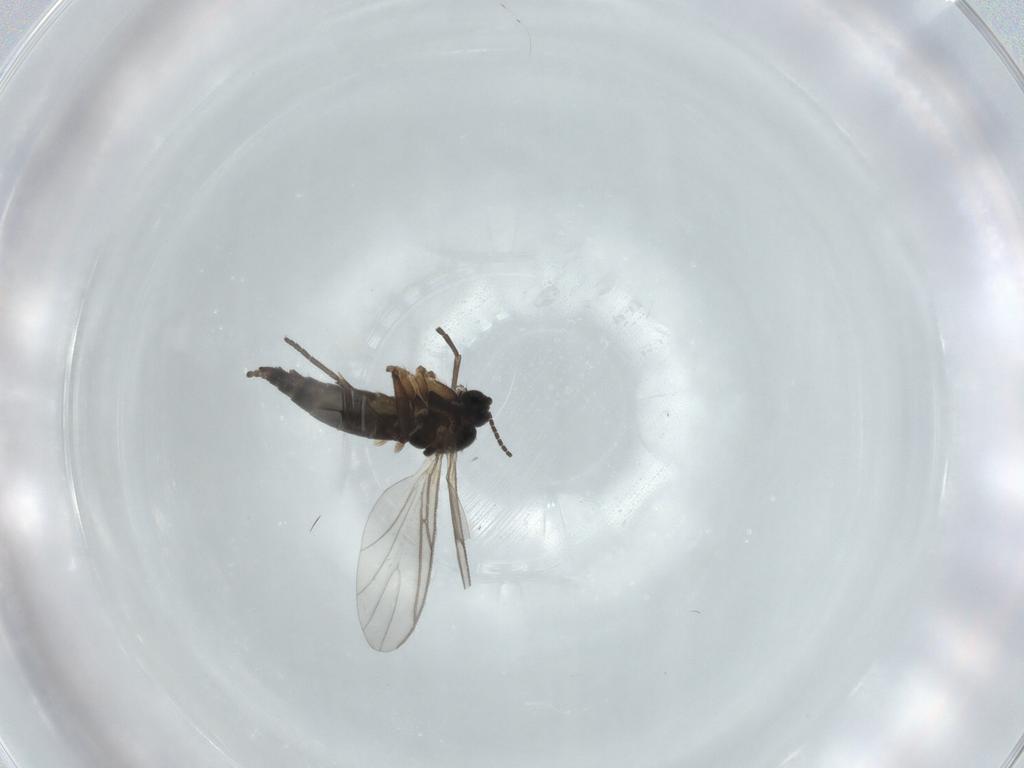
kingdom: Animalia
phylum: Arthropoda
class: Insecta
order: Diptera
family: Sciaridae
